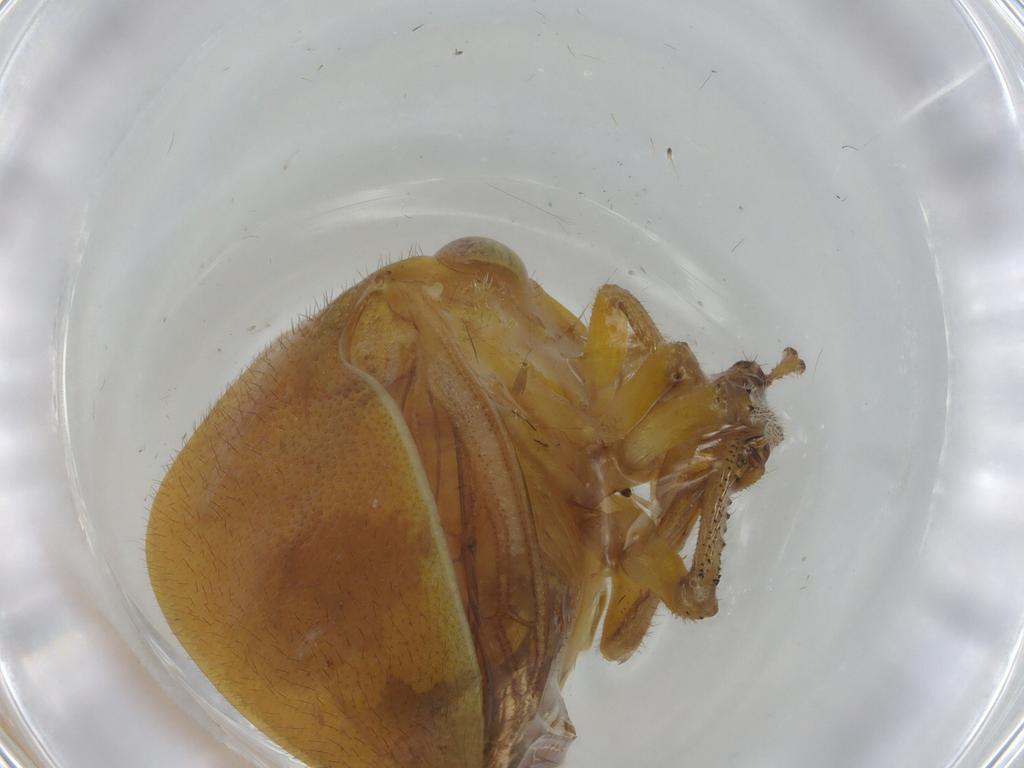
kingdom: Animalia
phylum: Arthropoda
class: Insecta
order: Hemiptera
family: Membracidae
